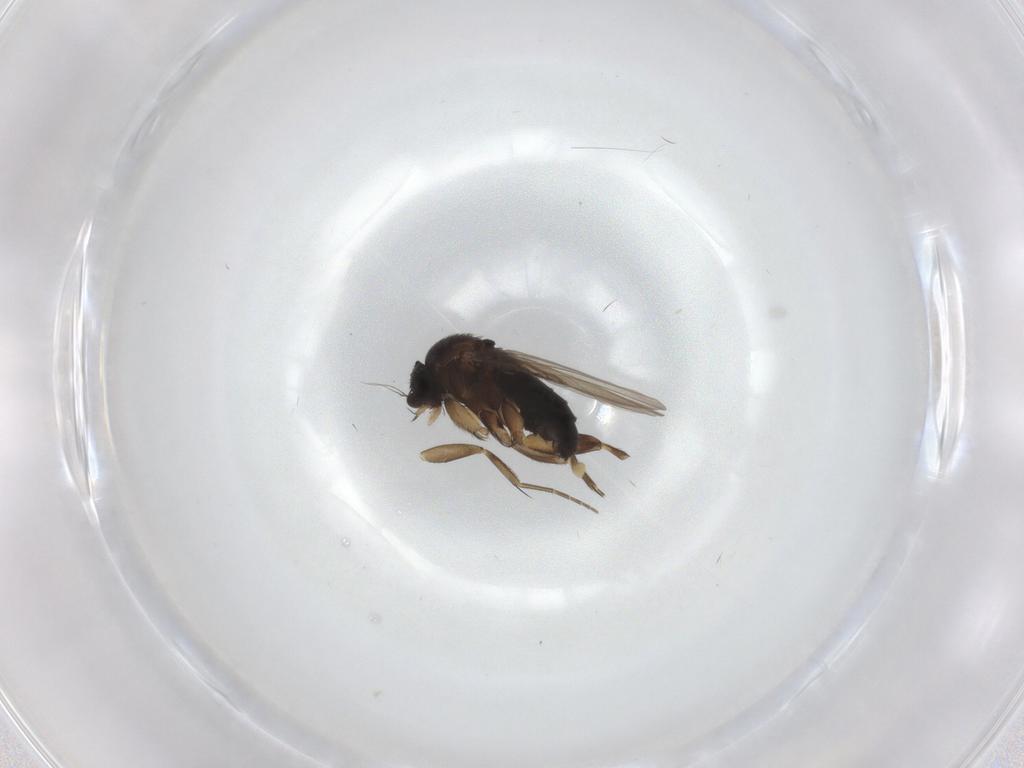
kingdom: Animalia
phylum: Arthropoda
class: Insecta
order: Diptera
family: Phoridae
